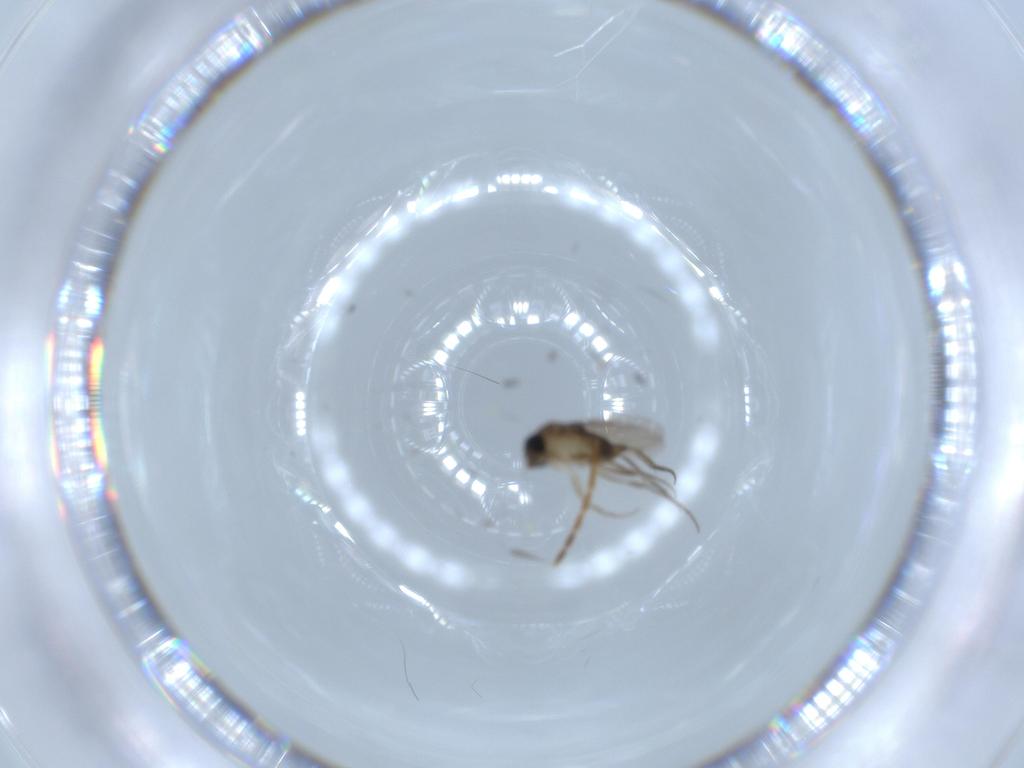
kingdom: Animalia
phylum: Arthropoda
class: Insecta
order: Diptera
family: Phoridae
